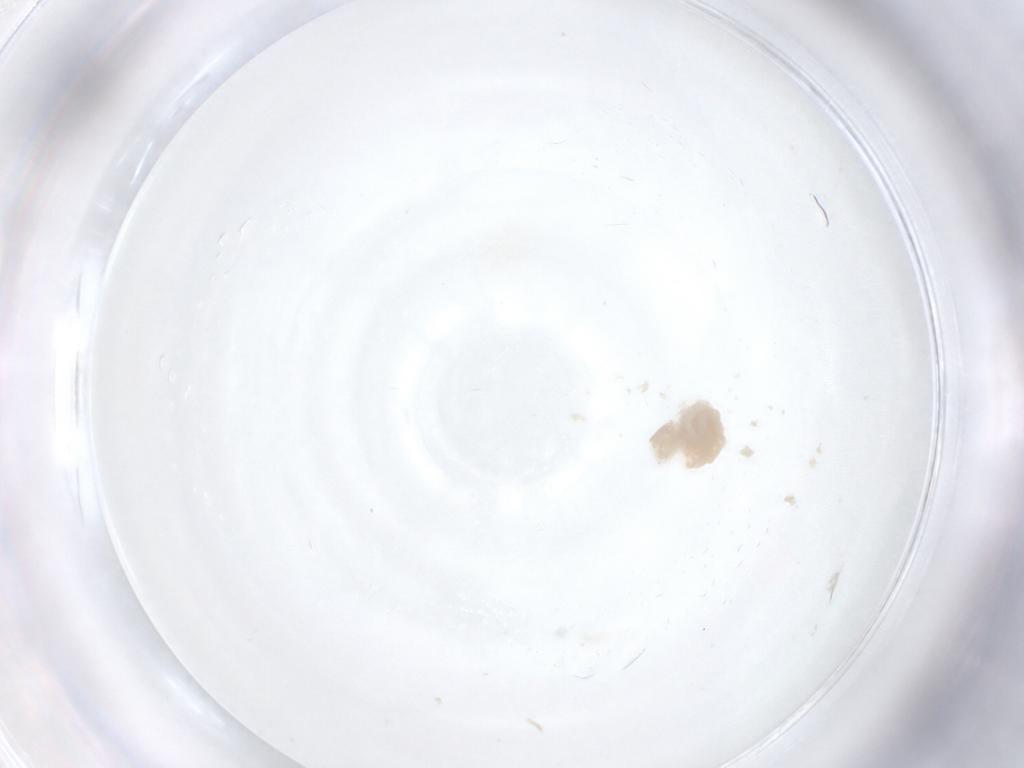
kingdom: Animalia
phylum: Arthropoda
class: Arachnida
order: Araneae
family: Pholcidae
